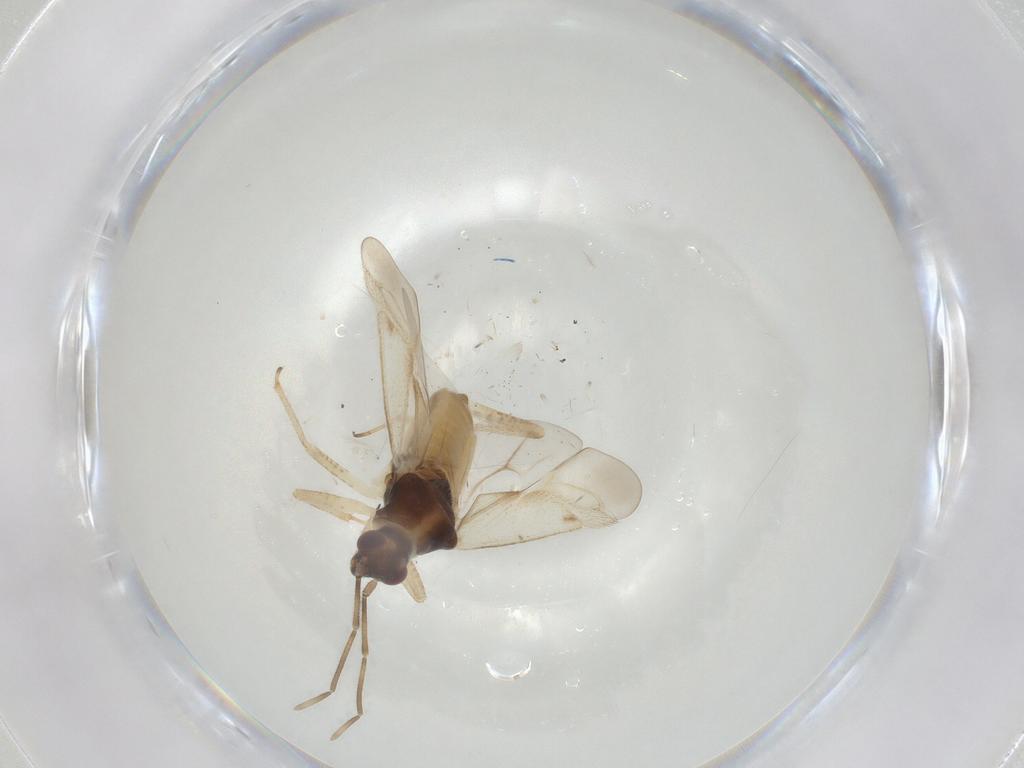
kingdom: Animalia
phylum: Arthropoda
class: Insecta
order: Hemiptera
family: Miridae
